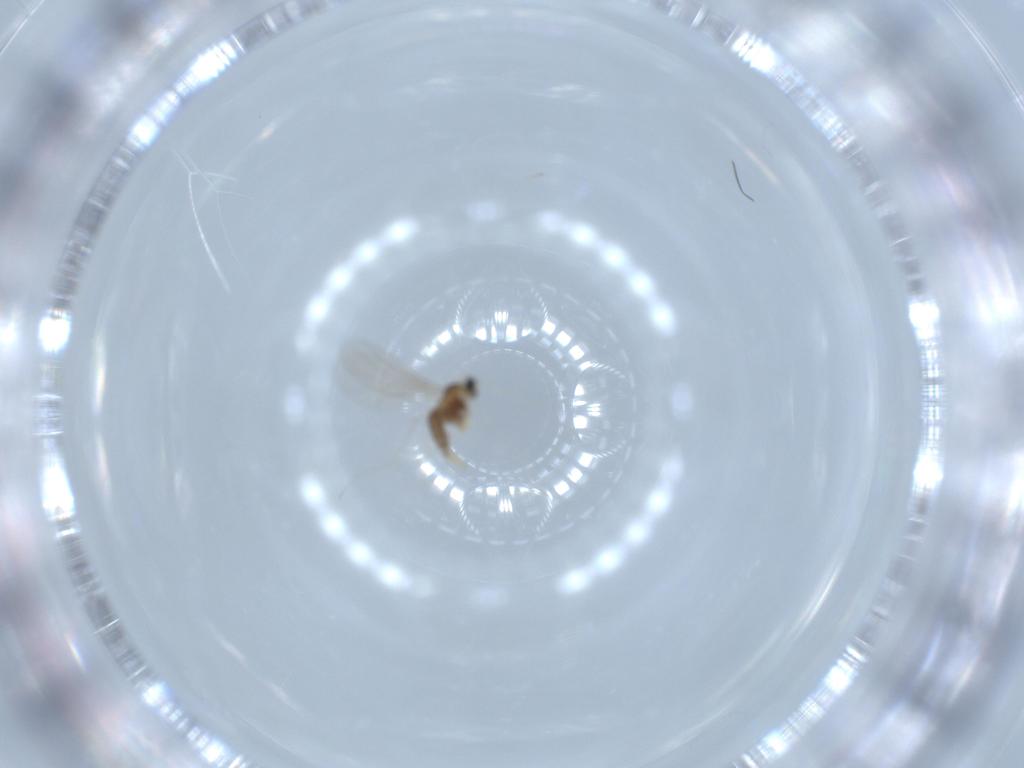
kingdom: Animalia
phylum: Arthropoda
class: Insecta
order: Diptera
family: Cecidomyiidae
